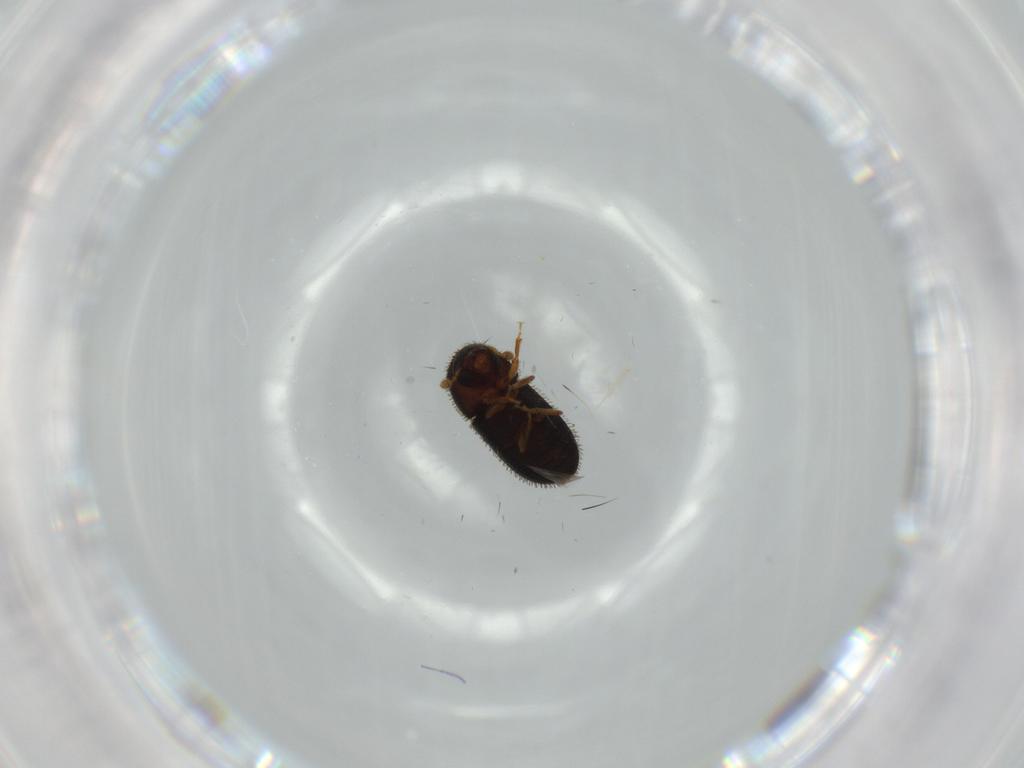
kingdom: Animalia
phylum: Arthropoda
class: Insecta
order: Coleoptera
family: Curculionidae
